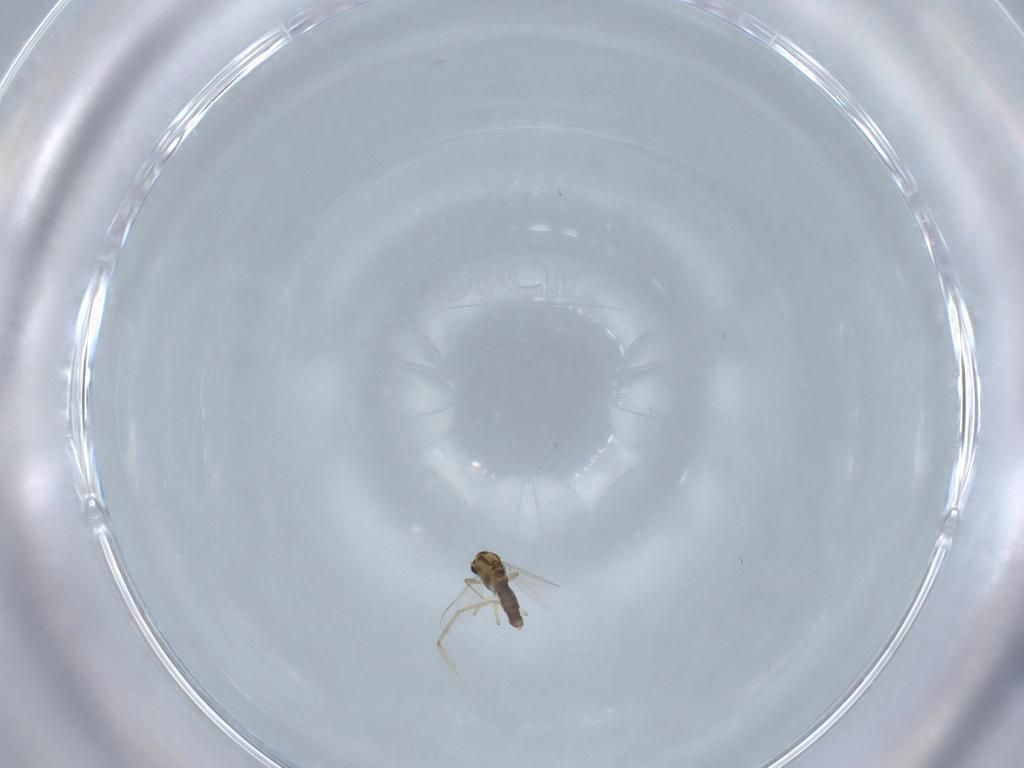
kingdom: Animalia
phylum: Arthropoda
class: Insecta
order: Diptera
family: Chironomidae
